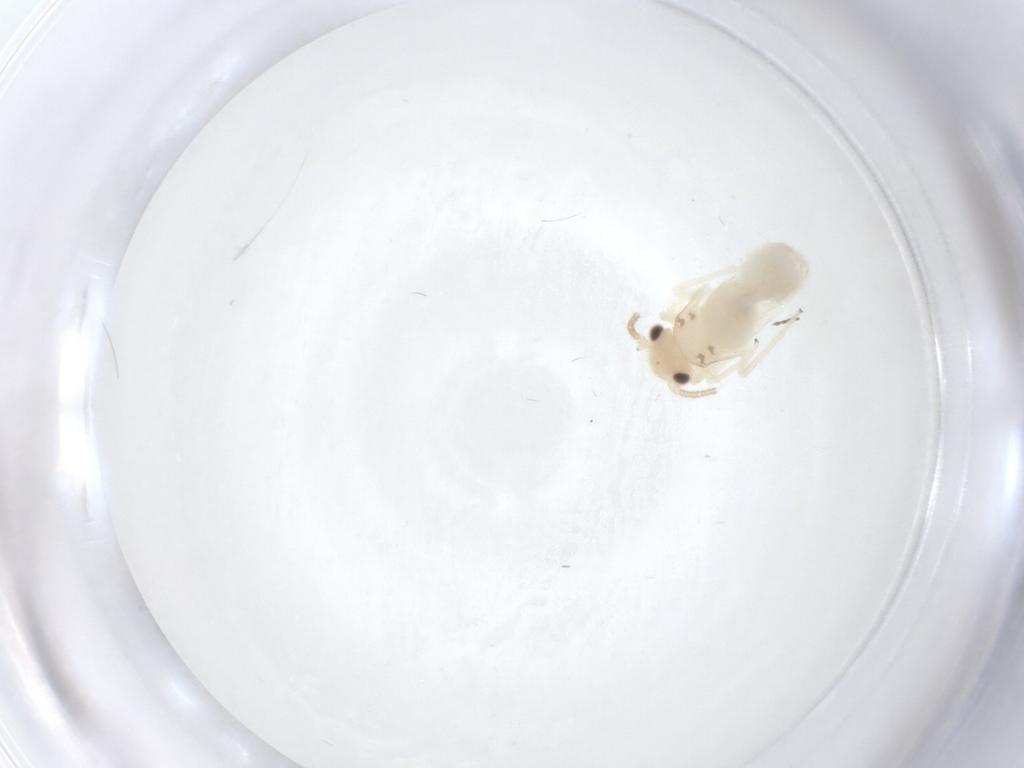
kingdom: Animalia
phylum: Arthropoda
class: Insecta
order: Psocodea
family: Caeciliusidae
